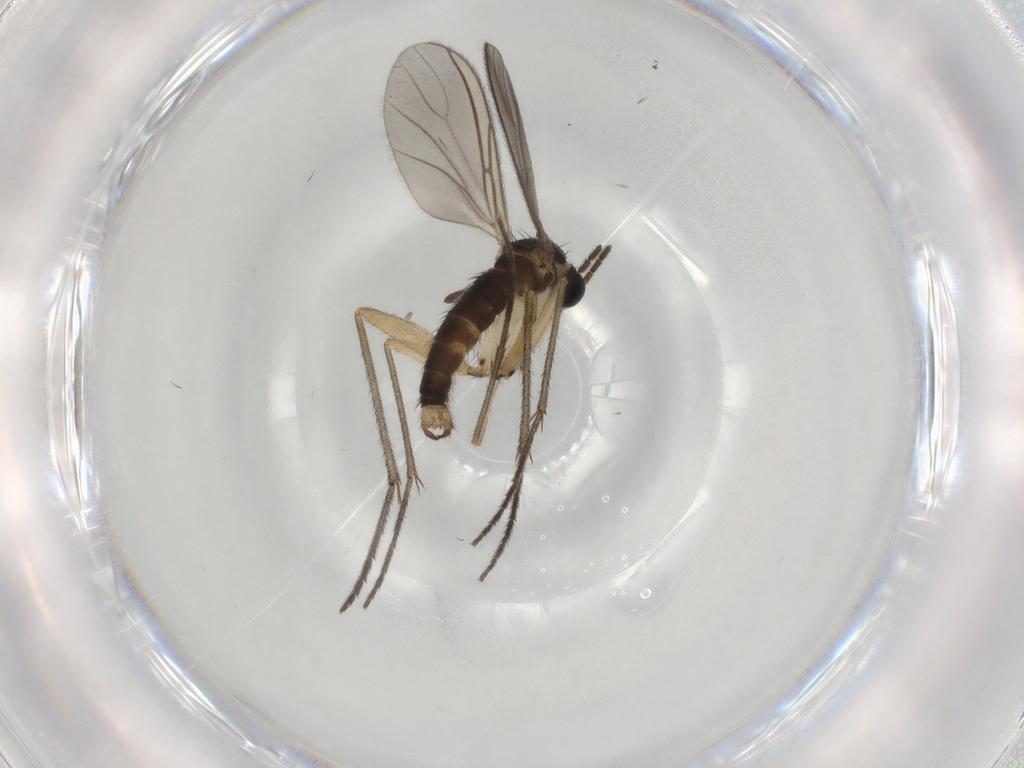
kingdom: Animalia
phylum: Arthropoda
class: Insecta
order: Diptera
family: Sciaridae
